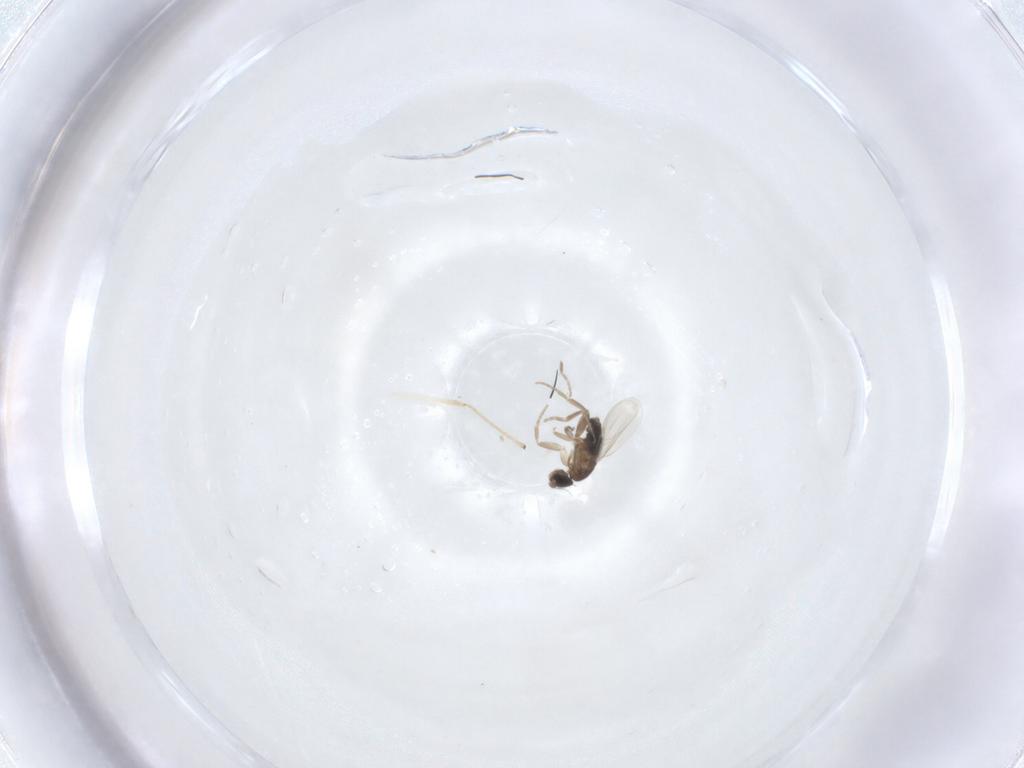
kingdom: Animalia
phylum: Arthropoda
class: Insecta
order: Diptera
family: Phoridae
